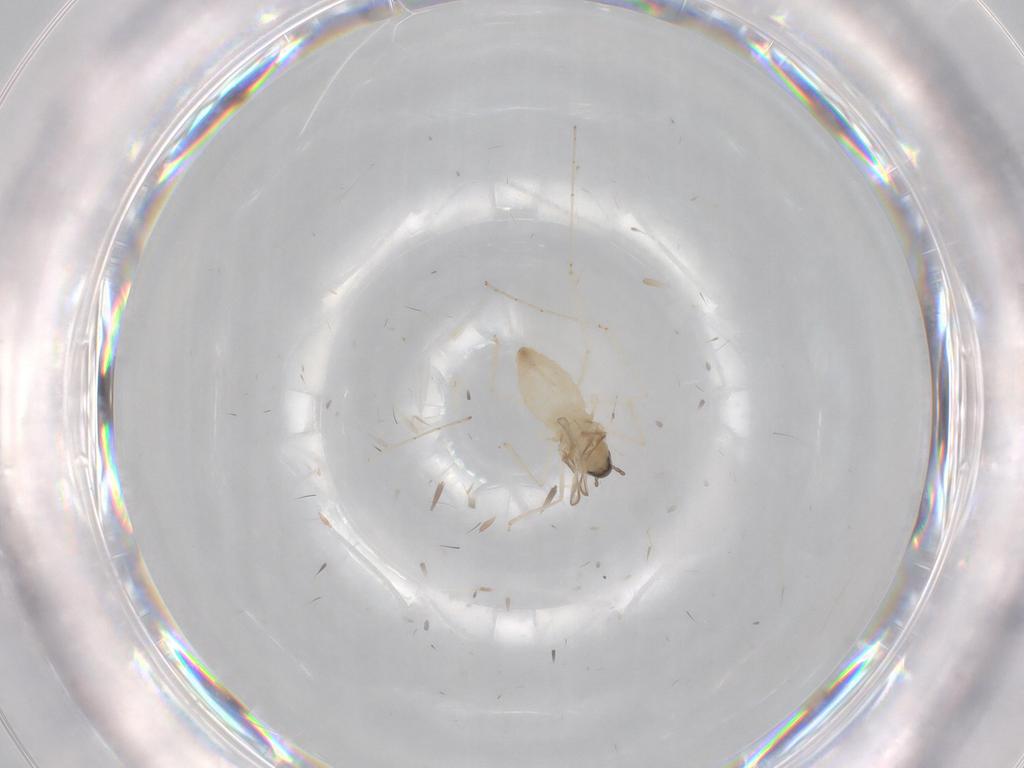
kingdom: Animalia
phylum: Arthropoda
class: Insecta
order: Diptera
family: Cecidomyiidae
